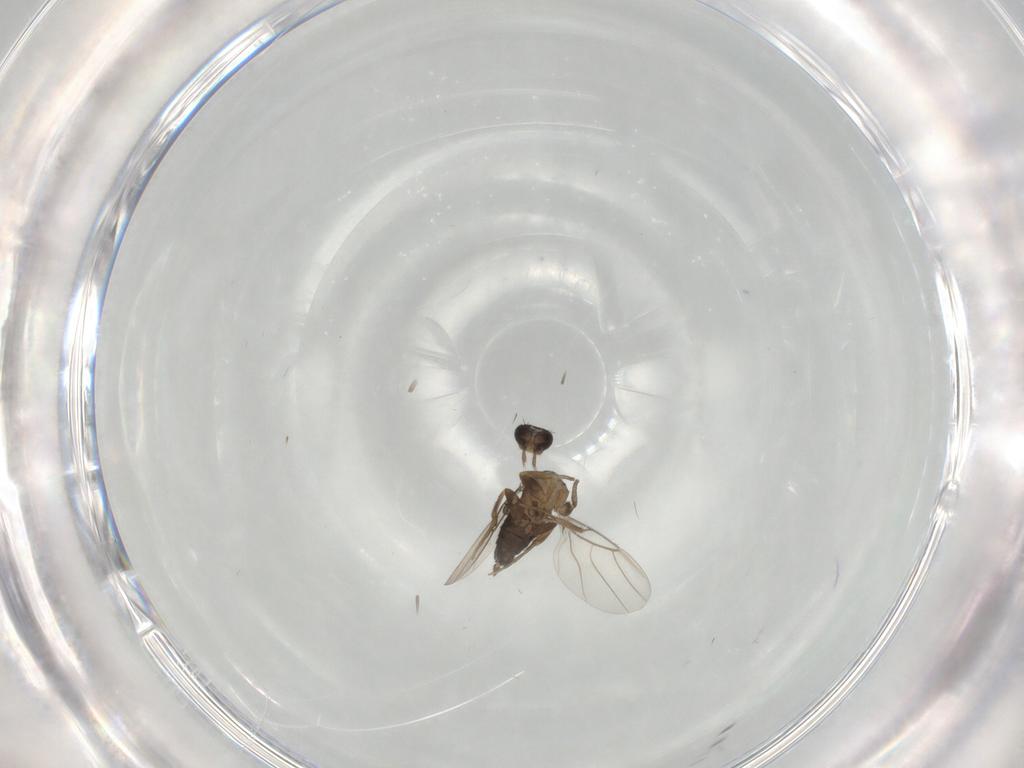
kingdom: Animalia
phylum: Arthropoda
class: Insecta
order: Diptera
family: Phoridae
